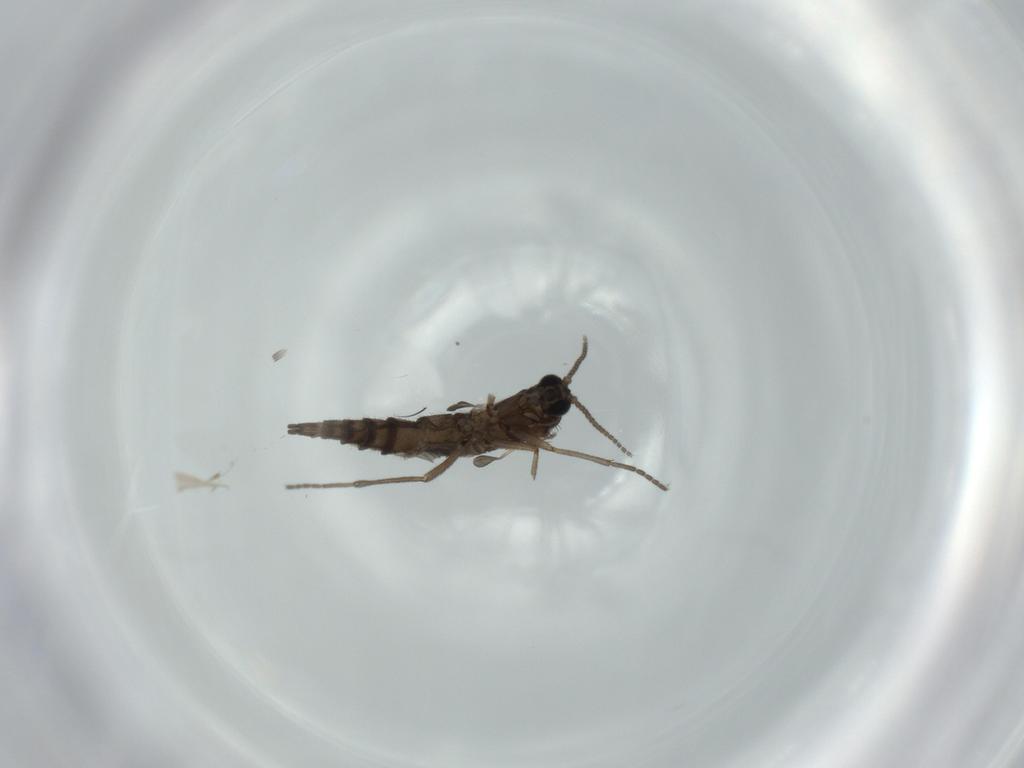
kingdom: Animalia
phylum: Arthropoda
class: Insecta
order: Diptera
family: Sciaridae
